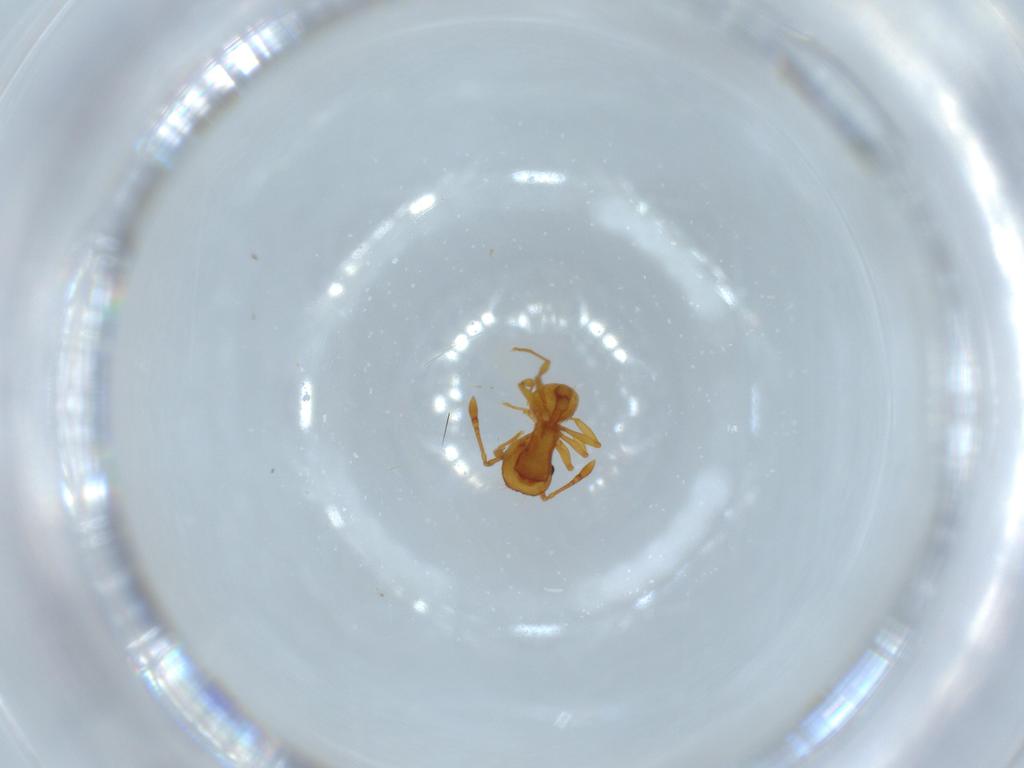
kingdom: Animalia
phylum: Arthropoda
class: Insecta
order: Hymenoptera
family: Formicidae
